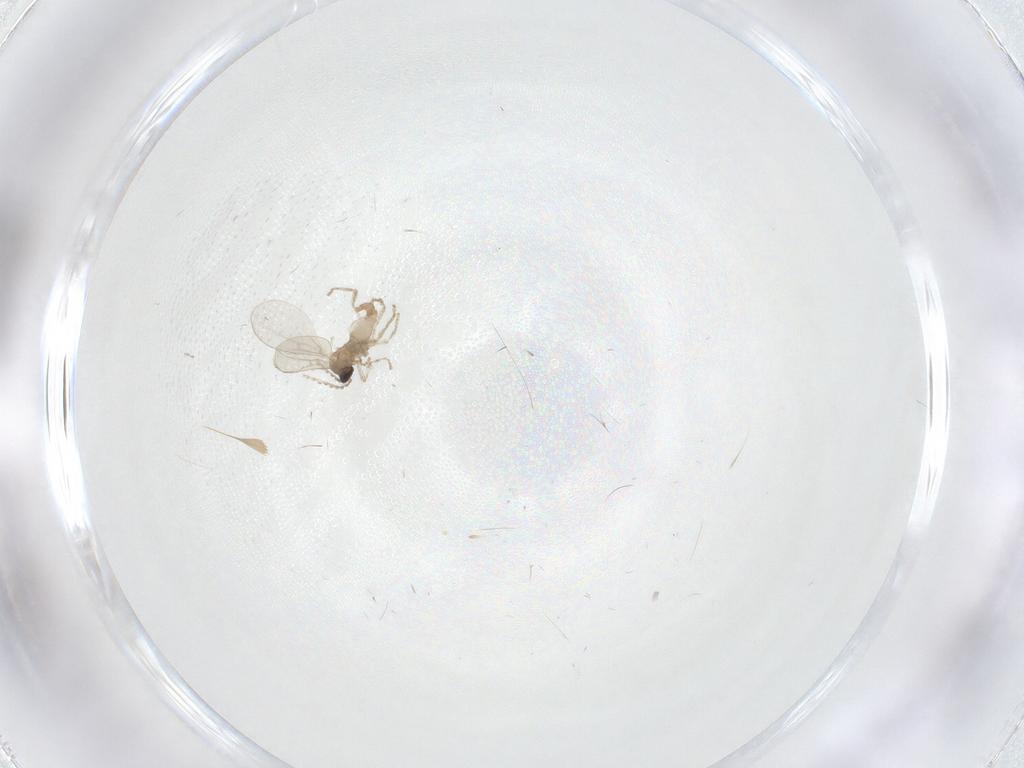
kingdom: Animalia
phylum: Arthropoda
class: Insecta
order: Diptera
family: Cecidomyiidae
